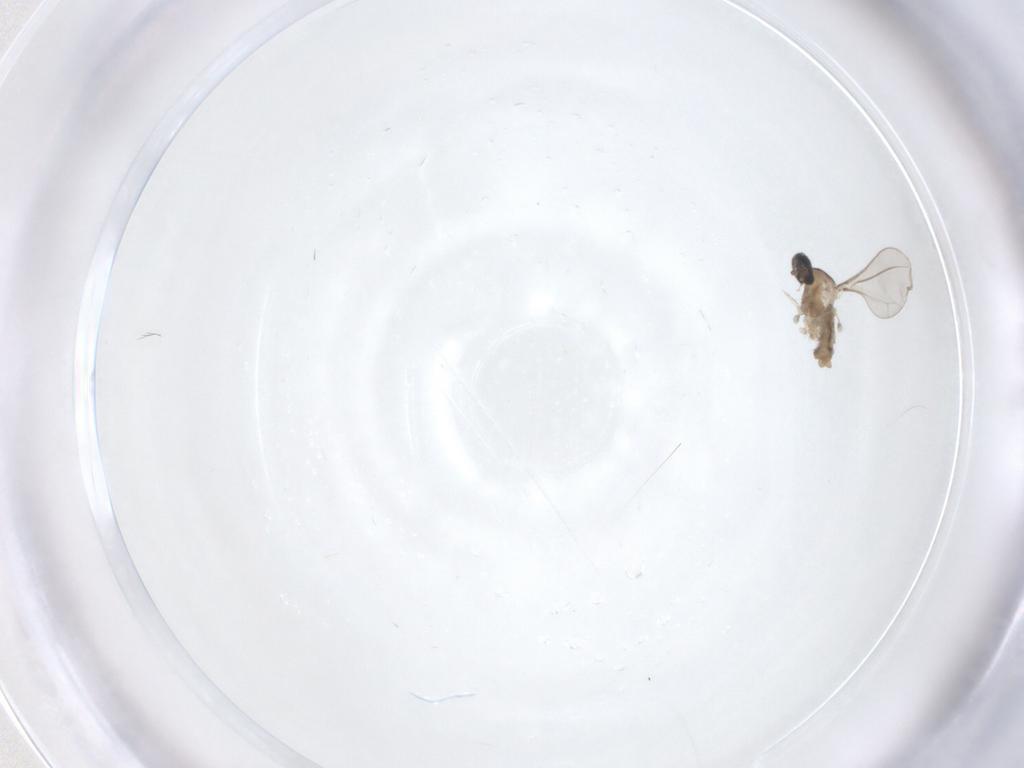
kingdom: Animalia
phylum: Arthropoda
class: Insecta
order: Diptera
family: Cecidomyiidae
